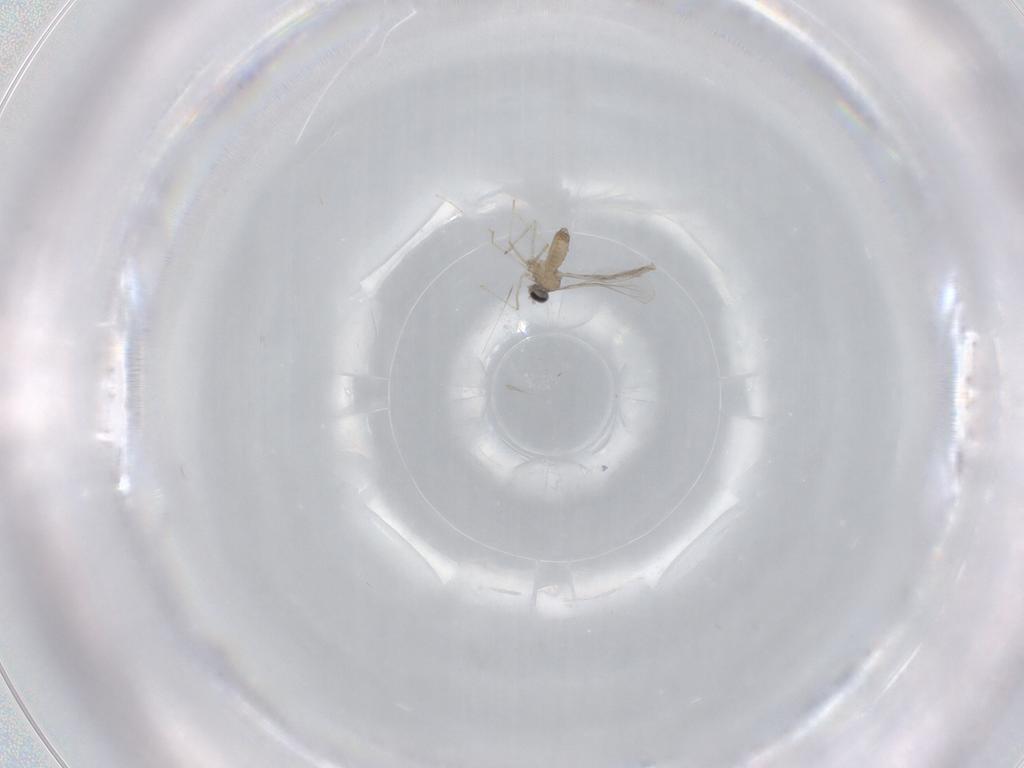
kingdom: Animalia
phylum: Arthropoda
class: Insecta
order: Diptera
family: Cecidomyiidae
